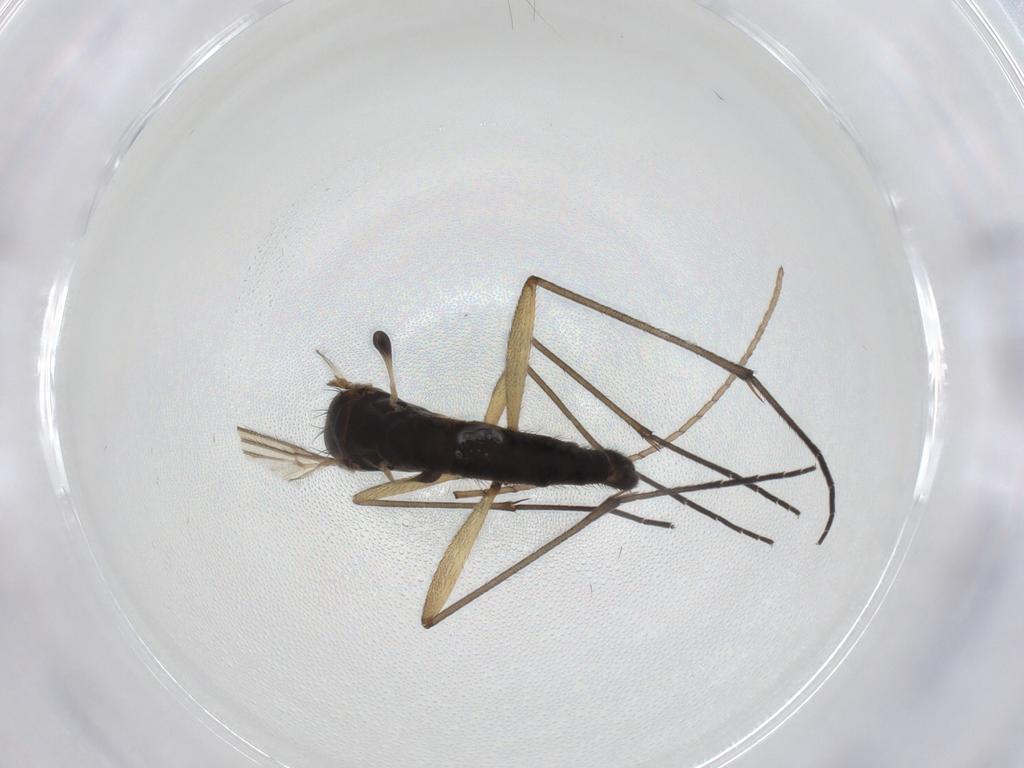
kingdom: Animalia
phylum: Arthropoda
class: Insecta
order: Diptera
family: Sciaridae
